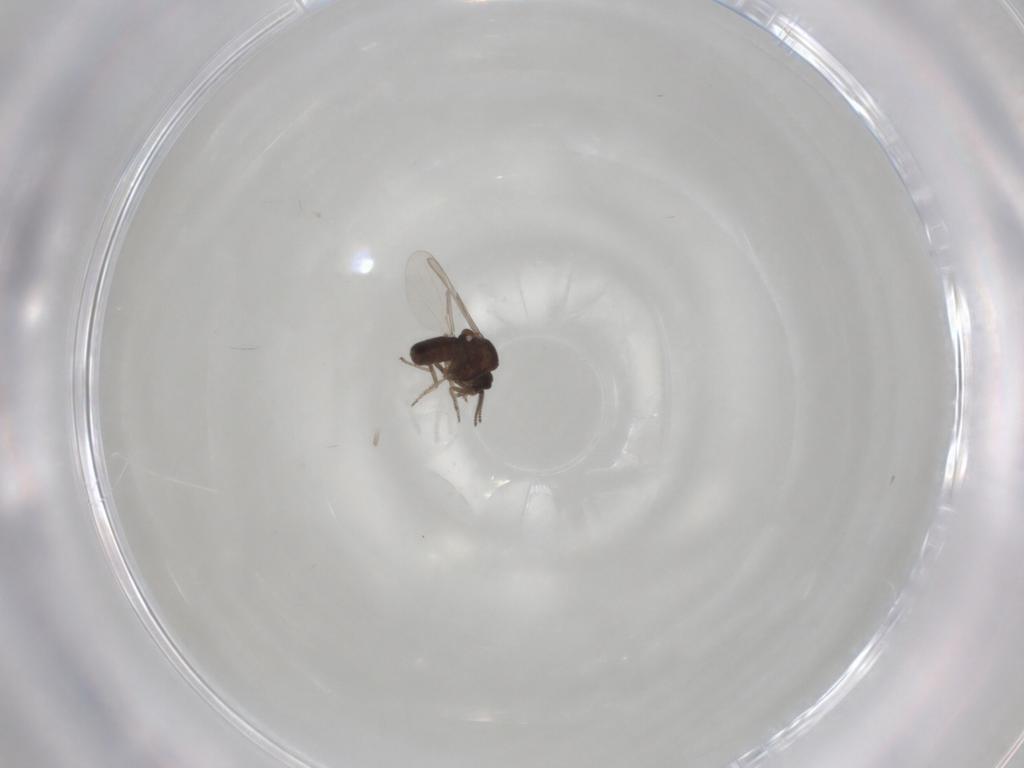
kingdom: Animalia
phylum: Arthropoda
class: Insecta
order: Diptera
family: Ceratopogonidae
